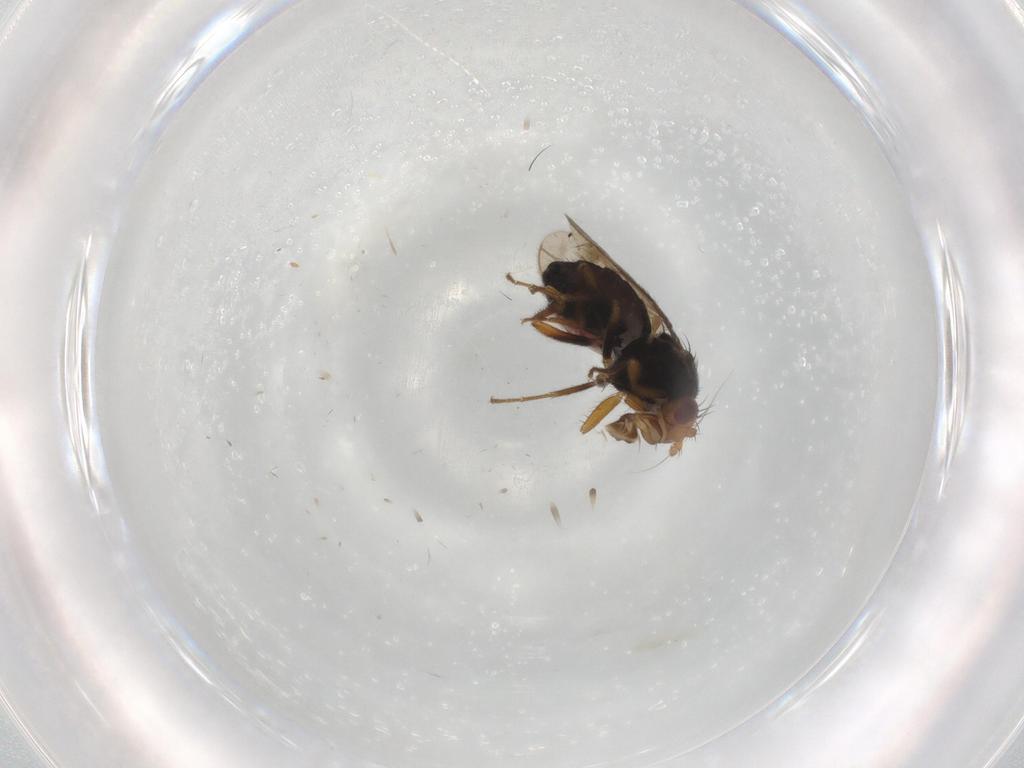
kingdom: Animalia
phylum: Arthropoda
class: Insecta
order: Diptera
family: Sphaeroceridae
